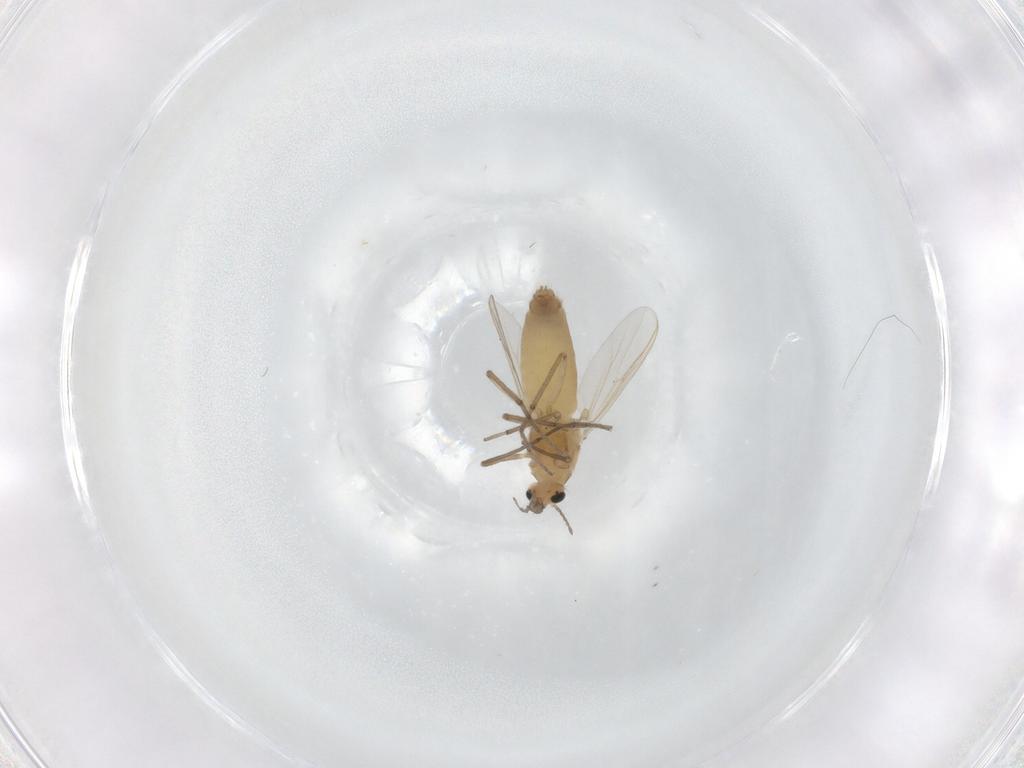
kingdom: Animalia
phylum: Arthropoda
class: Insecta
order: Diptera
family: Chironomidae
